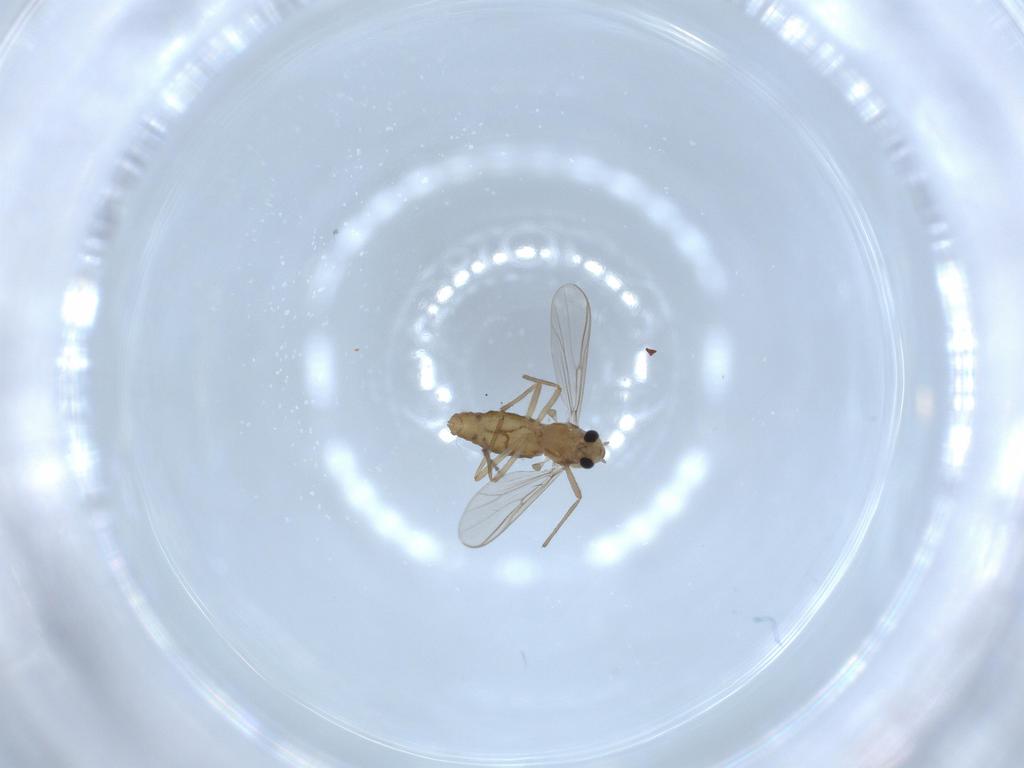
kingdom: Animalia
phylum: Arthropoda
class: Insecta
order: Diptera
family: Chironomidae
